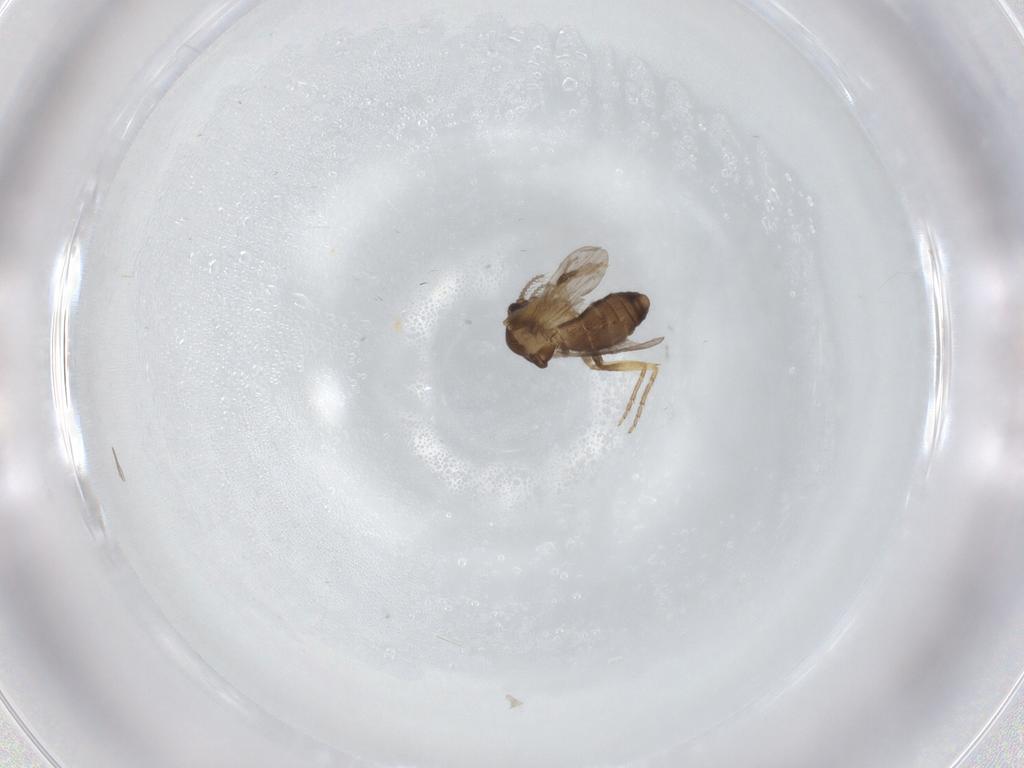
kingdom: Animalia
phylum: Arthropoda
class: Insecta
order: Diptera
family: Ceratopogonidae
